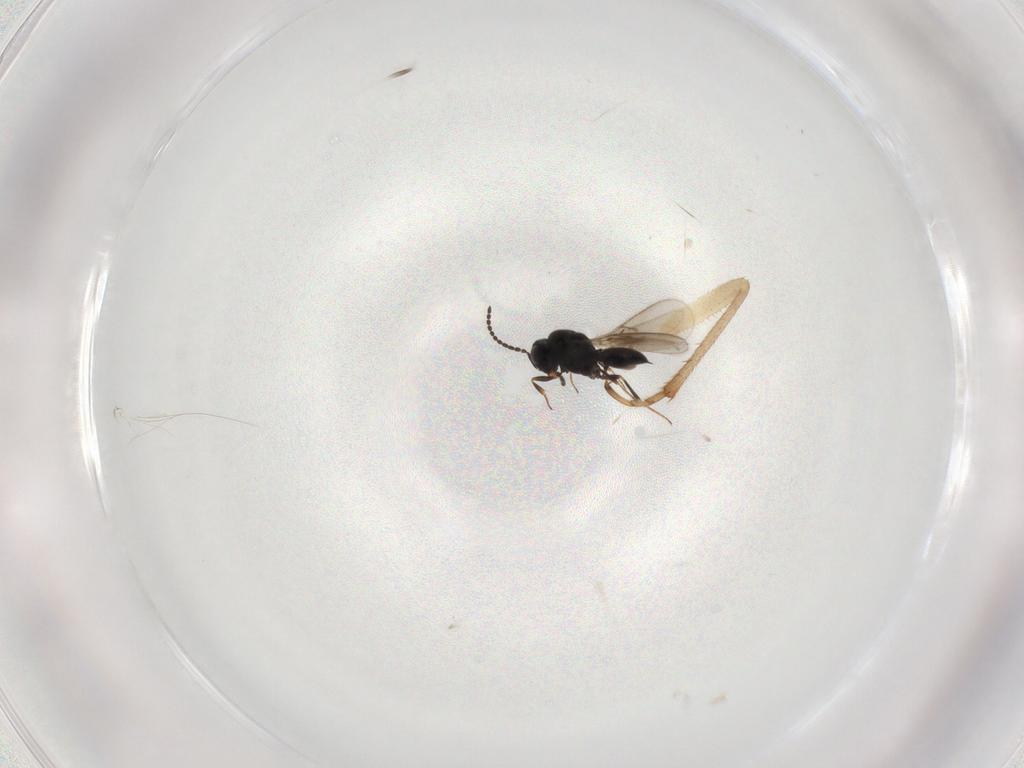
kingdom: Animalia
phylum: Arthropoda
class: Insecta
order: Hymenoptera
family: Scelionidae
